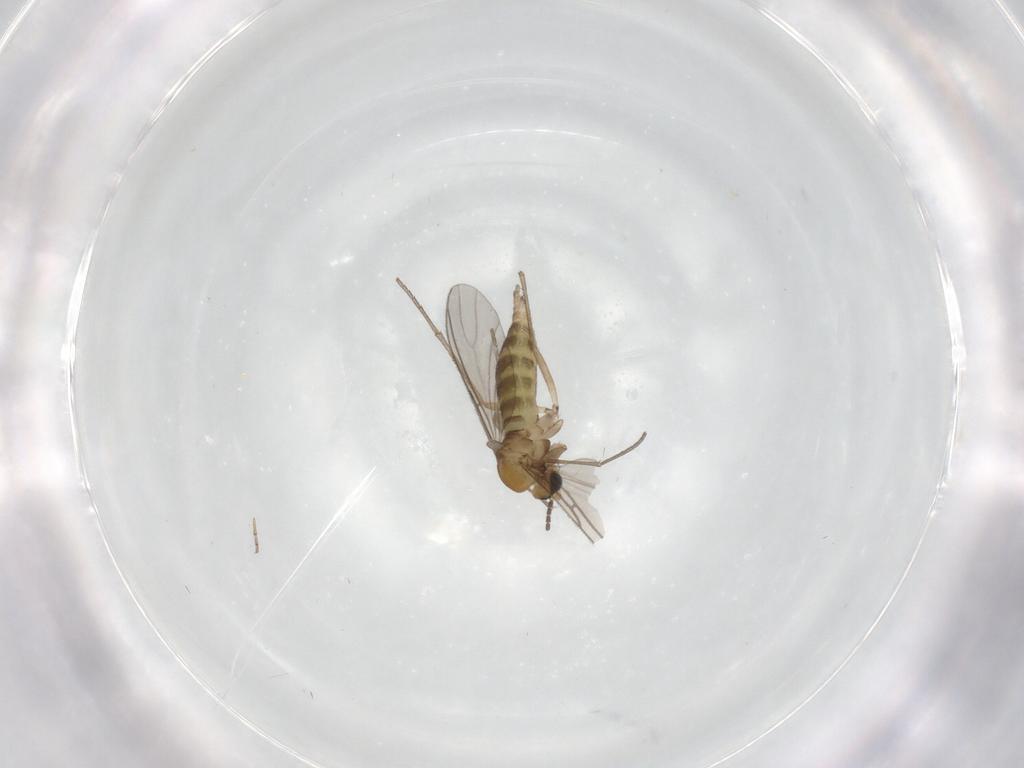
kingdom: Animalia
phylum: Arthropoda
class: Insecta
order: Diptera
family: Sciaridae
